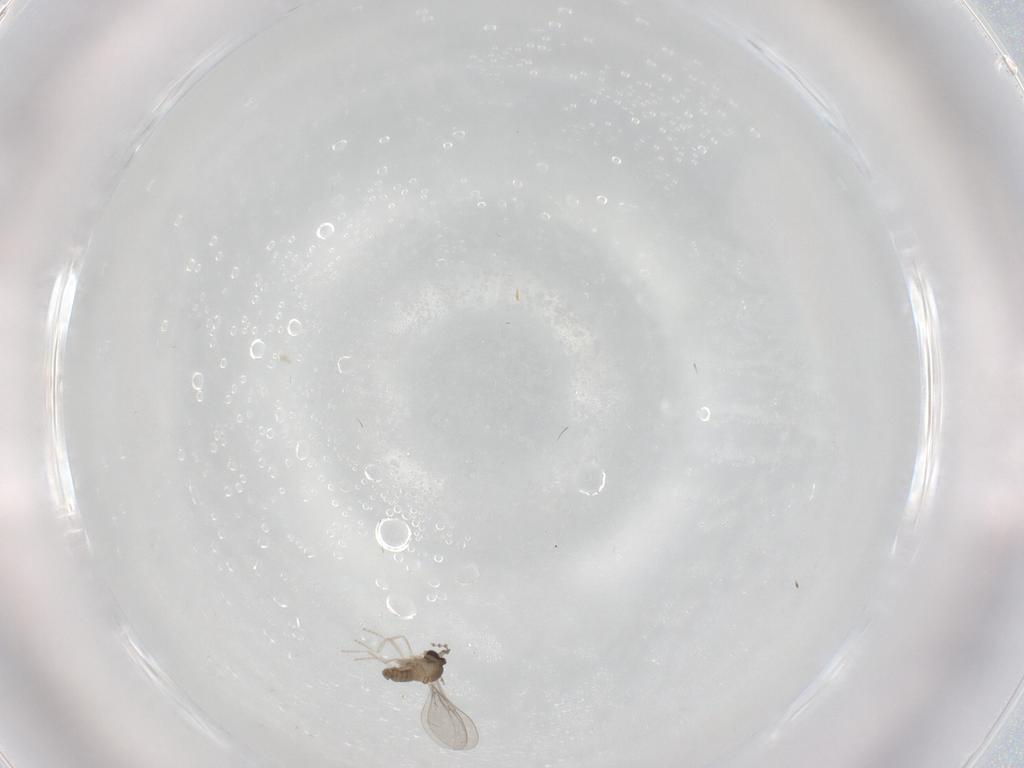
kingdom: Animalia
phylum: Arthropoda
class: Insecta
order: Diptera
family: Cecidomyiidae
